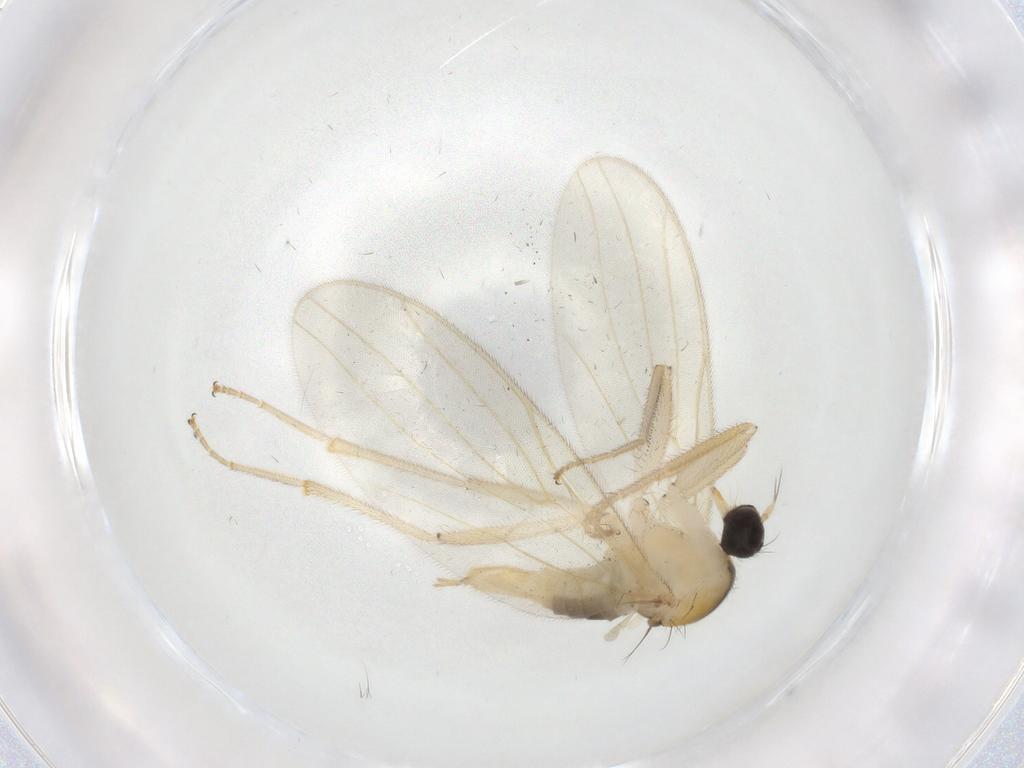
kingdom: Animalia
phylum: Arthropoda
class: Insecta
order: Diptera
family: Hybotidae
